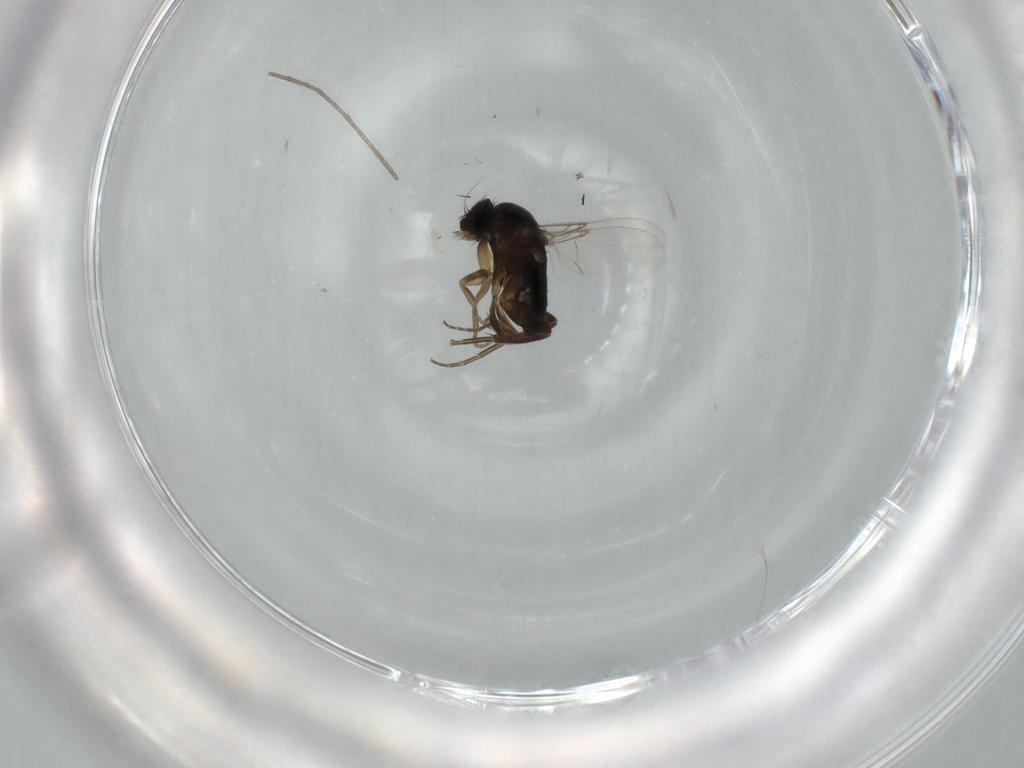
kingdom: Animalia
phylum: Arthropoda
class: Insecta
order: Diptera
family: Phoridae
